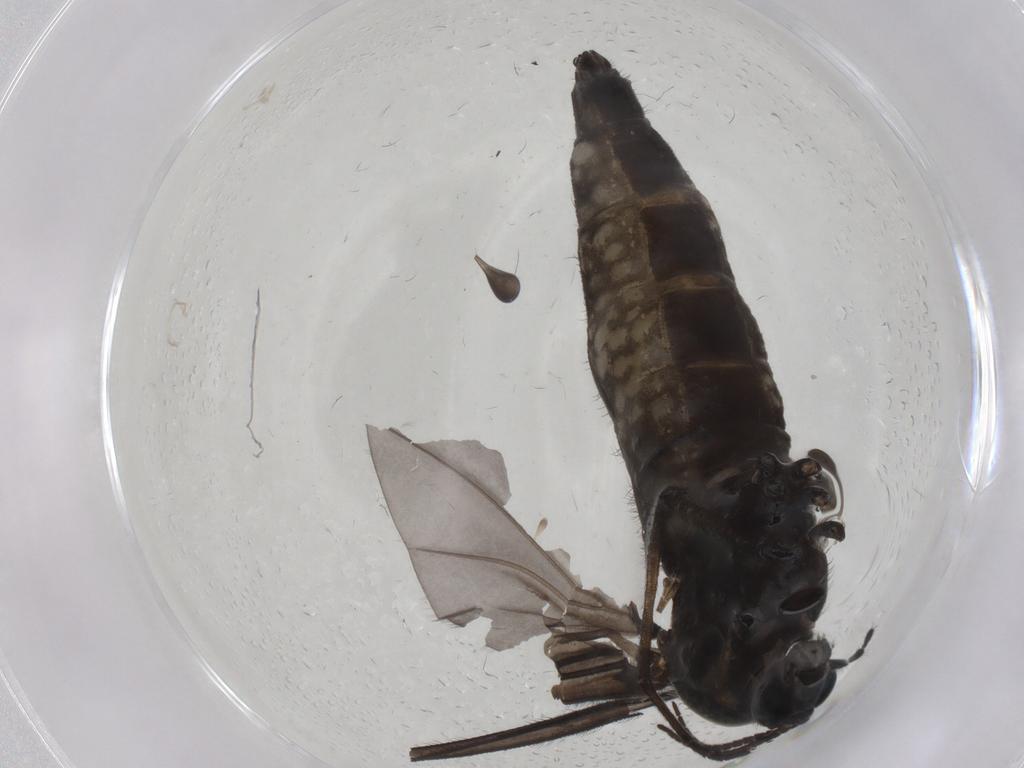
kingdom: Animalia
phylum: Arthropoda
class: Insecta
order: Diptera
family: Sciaridae
